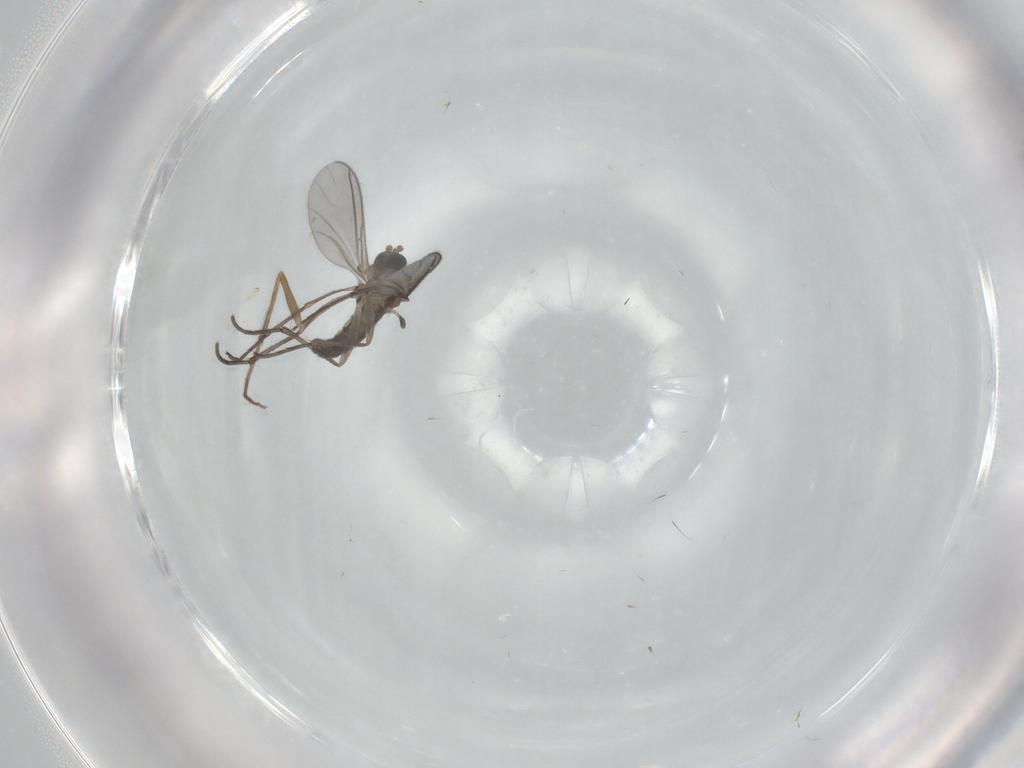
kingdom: Animalia
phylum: Arthropoda
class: Insecta
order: Diptera
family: Sciaridae
